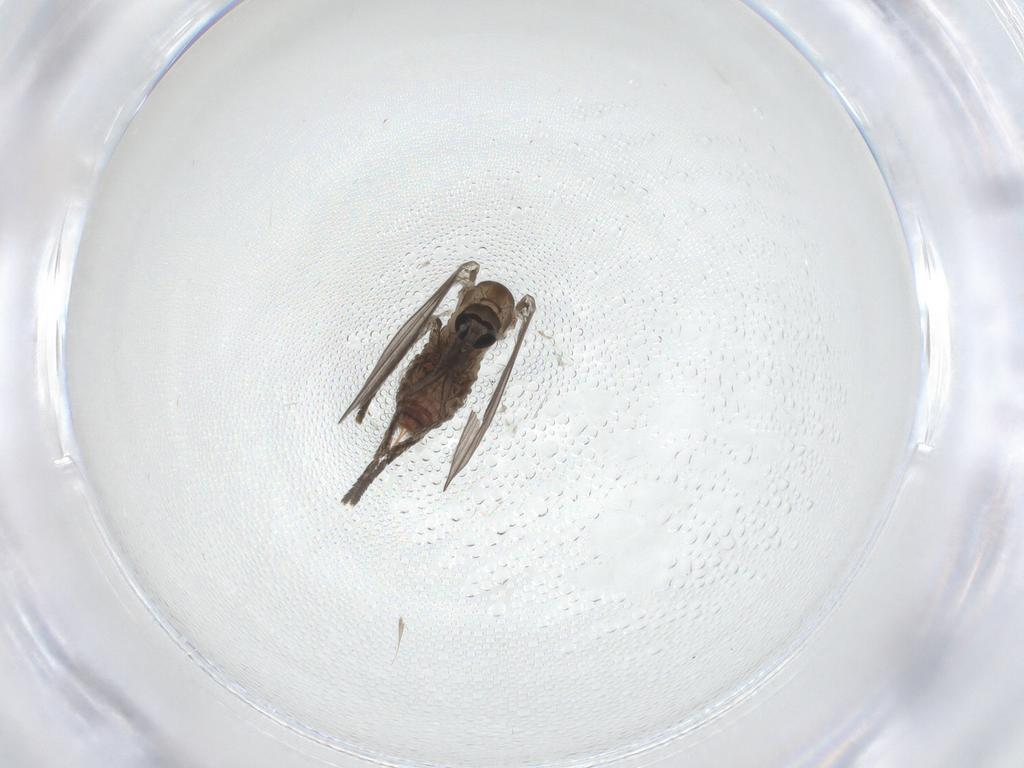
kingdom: Animalia
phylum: Arthropoda
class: Insecta
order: Diptera
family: Psychodidae
